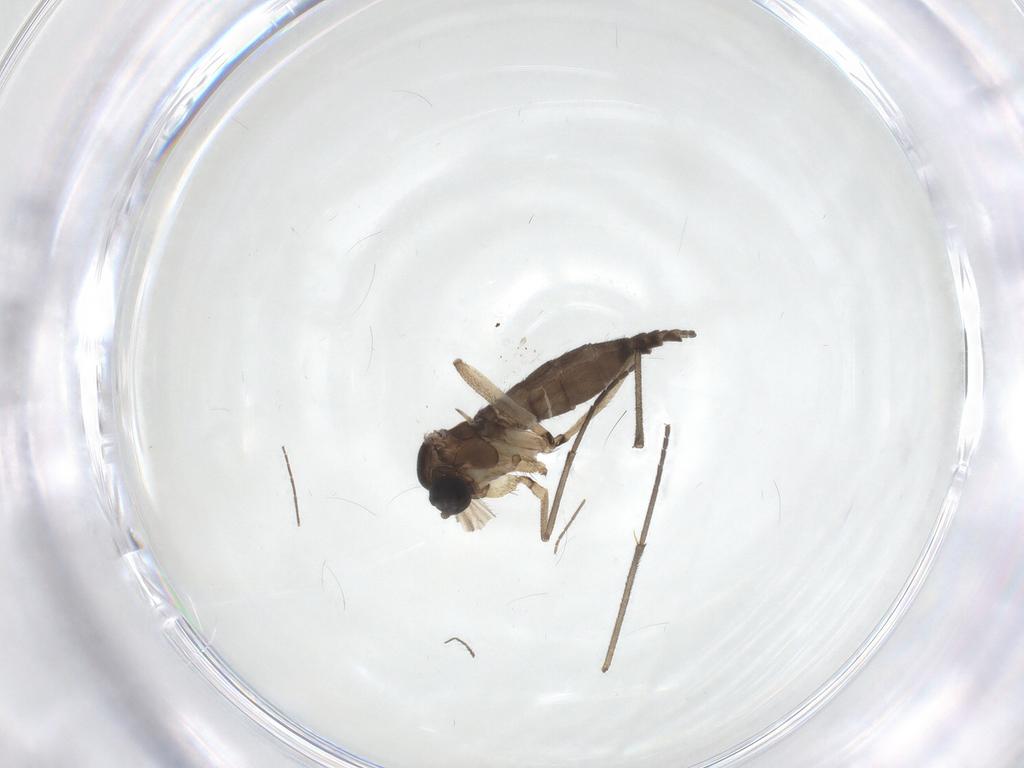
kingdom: Animalia
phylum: Arthropoda
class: Insecta
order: Diptera
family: Sciaridae
